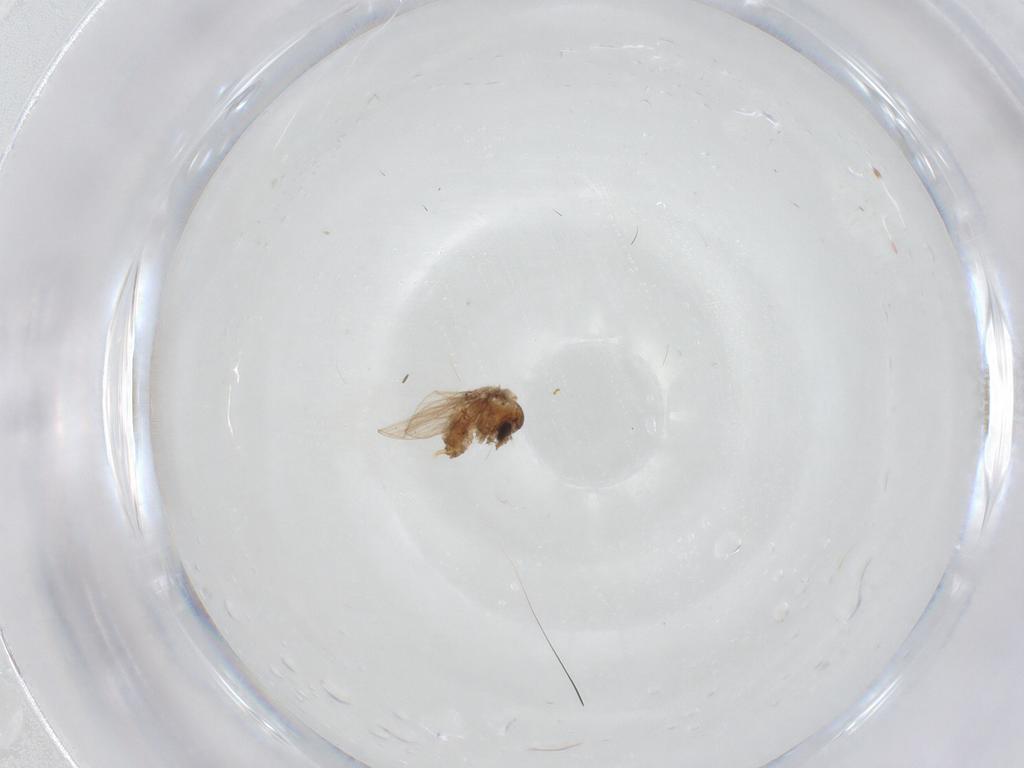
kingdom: Animalia
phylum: Arthropoda
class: Insecta
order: Diptera
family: Psychodidae
